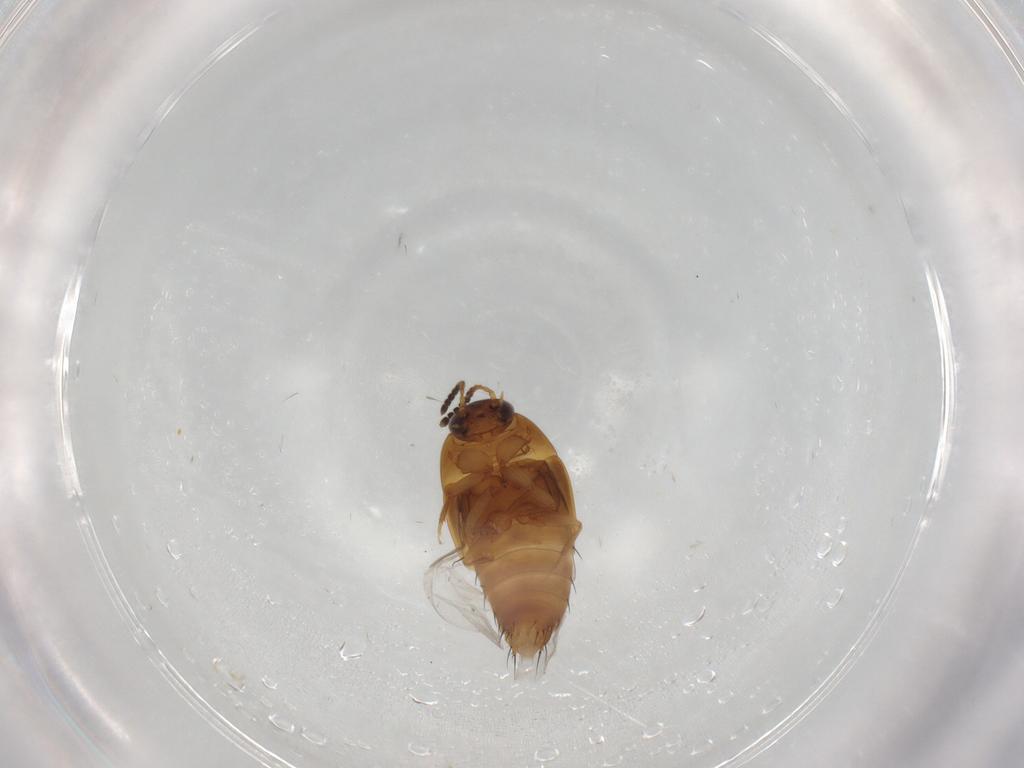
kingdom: Animalia
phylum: Arthropoda
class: Insecta
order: Coleoptera
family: Staphylinidae
